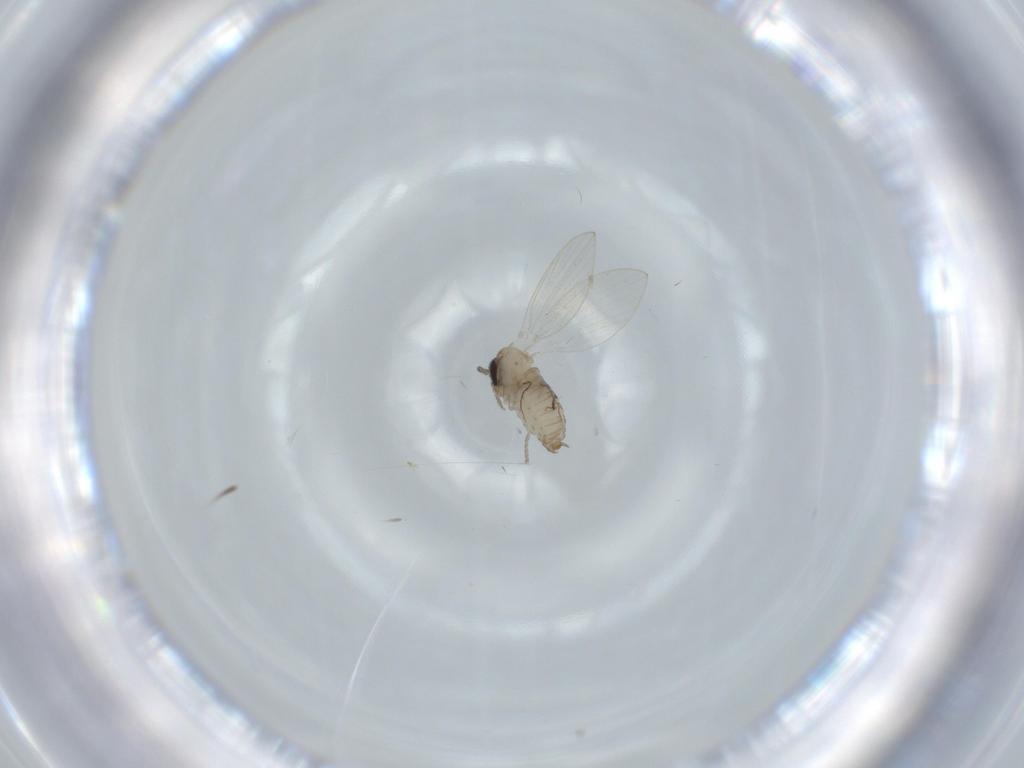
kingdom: Animalia
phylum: Arthropoda
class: Insecta
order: Diptera
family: Psychodidae
